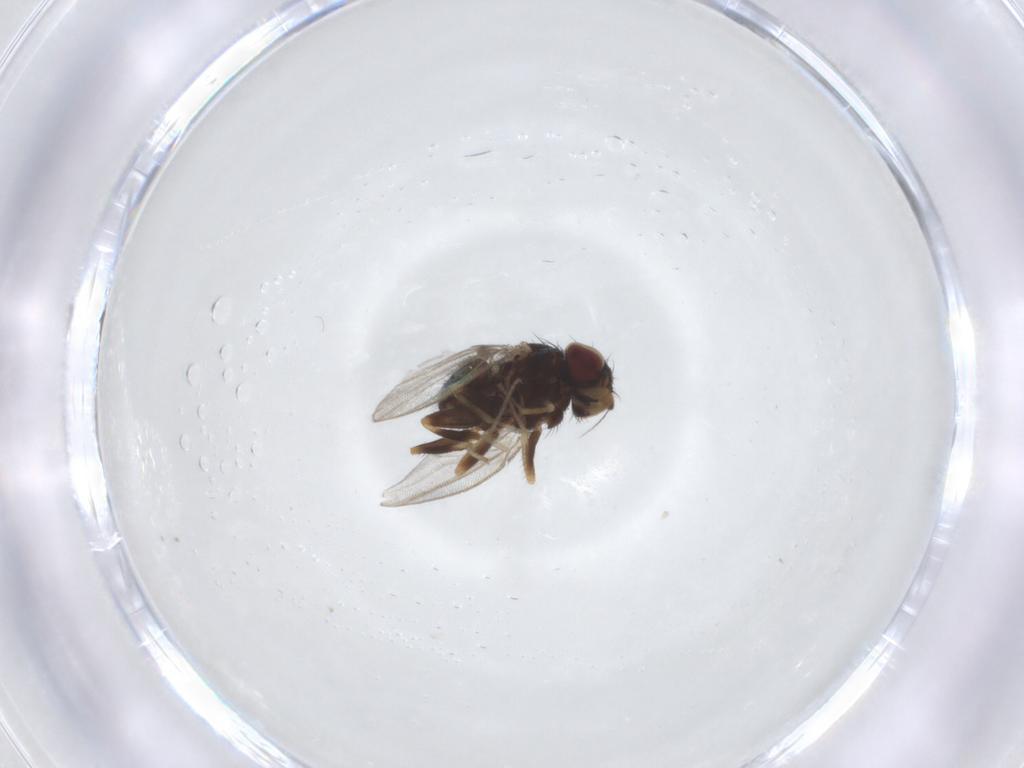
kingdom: Animalia
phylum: Arthropoda
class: Insecta
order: Diptera
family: Milichiidae
